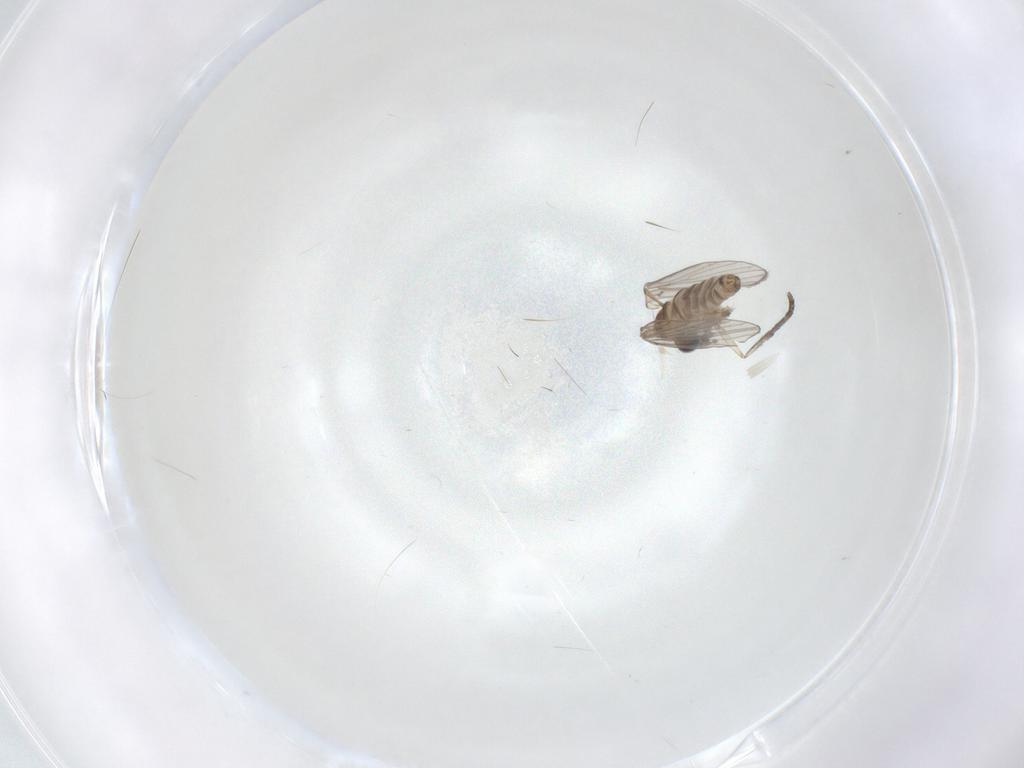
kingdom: Animalia
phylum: Arthropoda
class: Insecta
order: Diptera
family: Psychodidae
